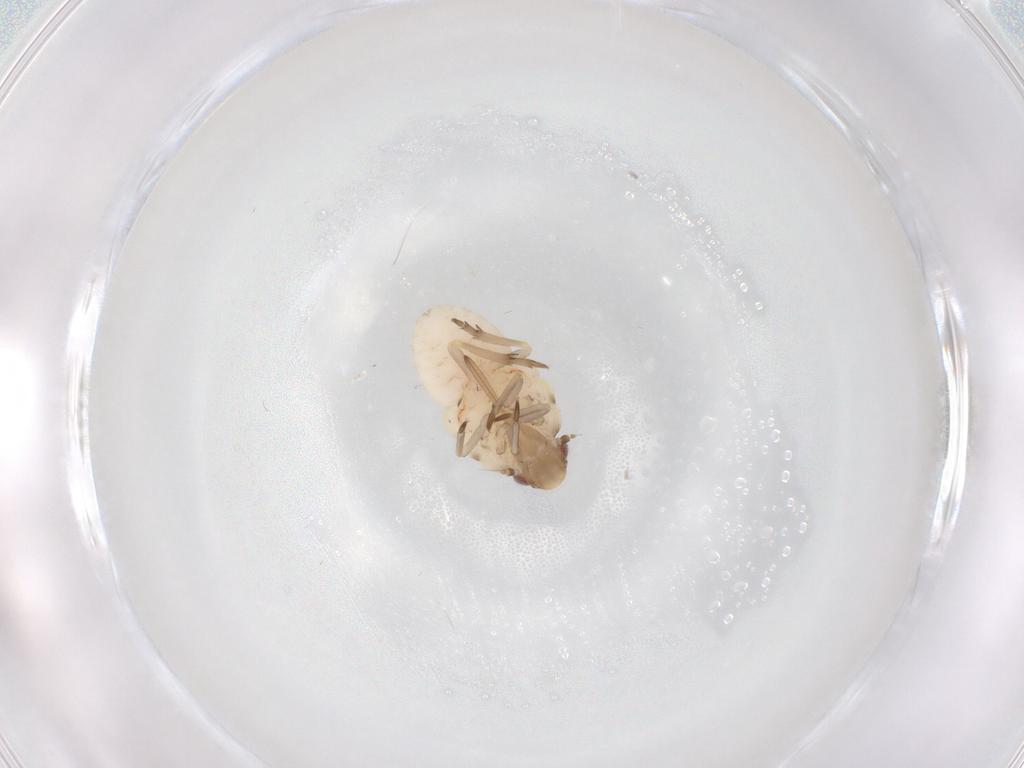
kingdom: Animalia
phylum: Arthropoda
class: Insecta
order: Hemiptera
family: Flatidae
